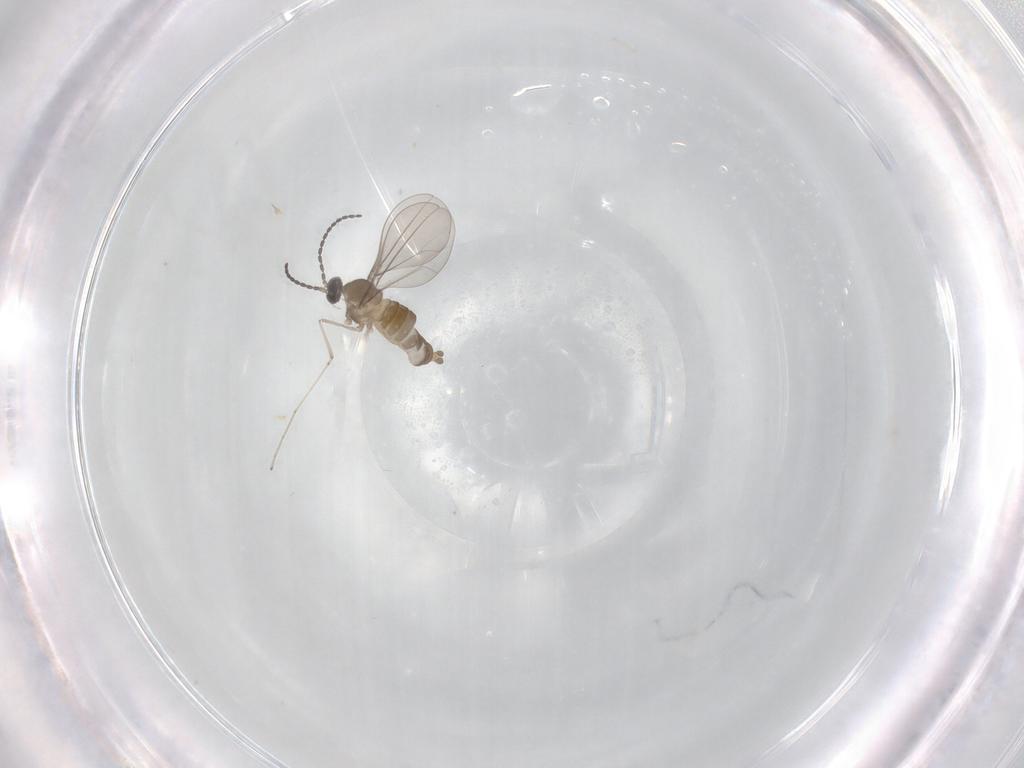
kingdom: Animalia
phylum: Arthropoda
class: Insecta
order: Diptera
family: Cecidomyiidae
